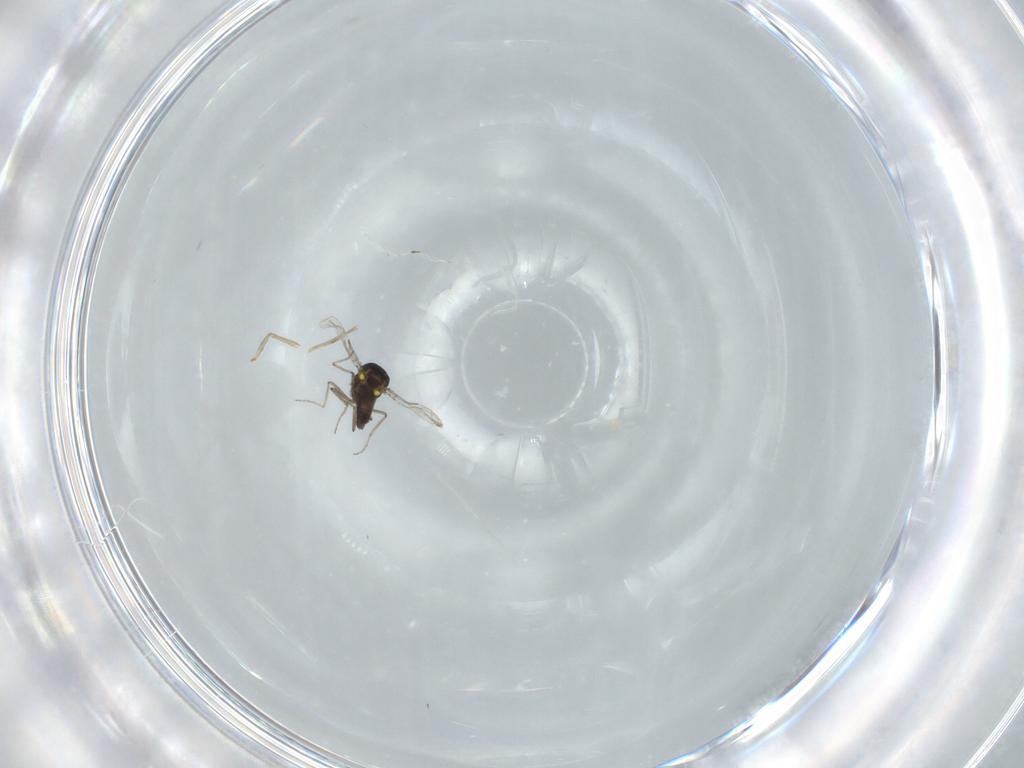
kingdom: Animalia
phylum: Arthropoda
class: Insecta
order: Diptera
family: Ceratopogonidae
